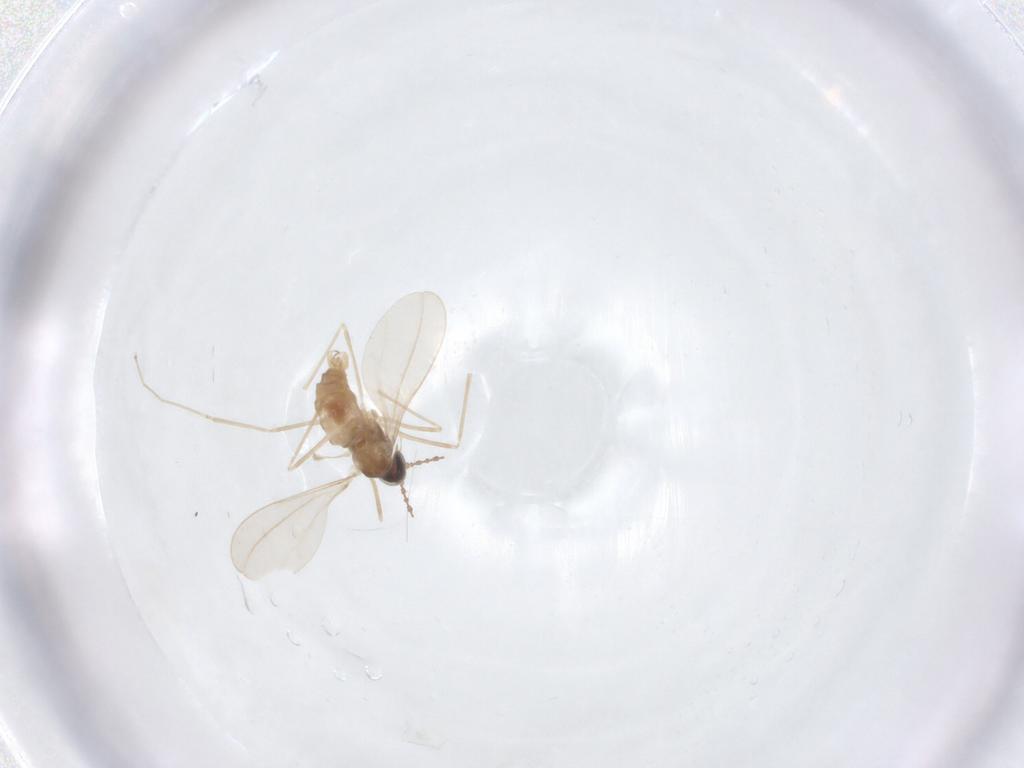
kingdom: Animalia
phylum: Arthropoda
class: Insecta
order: Diptera
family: Cecidomyiidae
